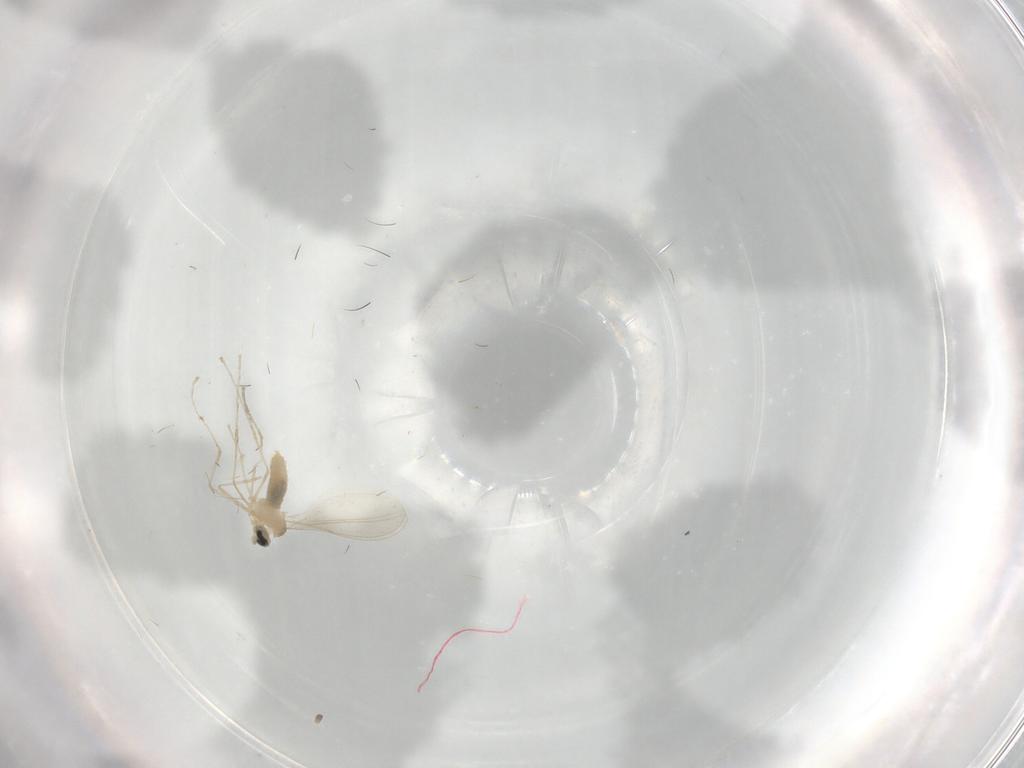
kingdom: Animalia
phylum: Arthropoda
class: Insecta
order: Diptera
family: Cecidomyiidae
